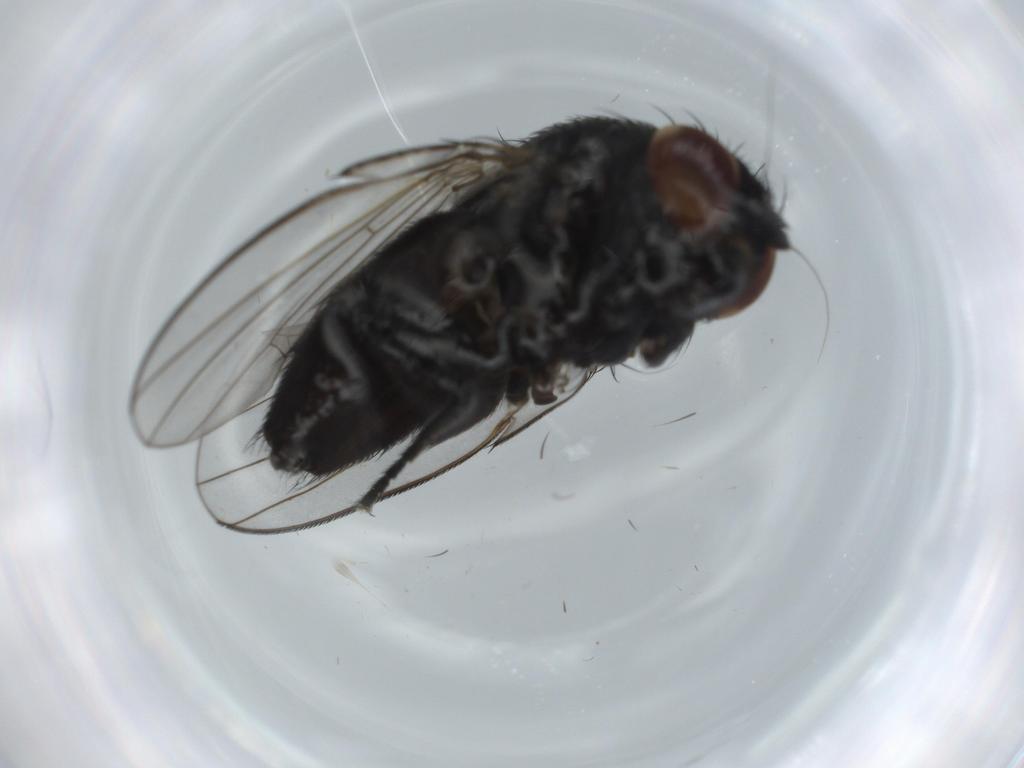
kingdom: Animalia
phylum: Arthropoda
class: Insecta
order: Diptera
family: Milichiidae
